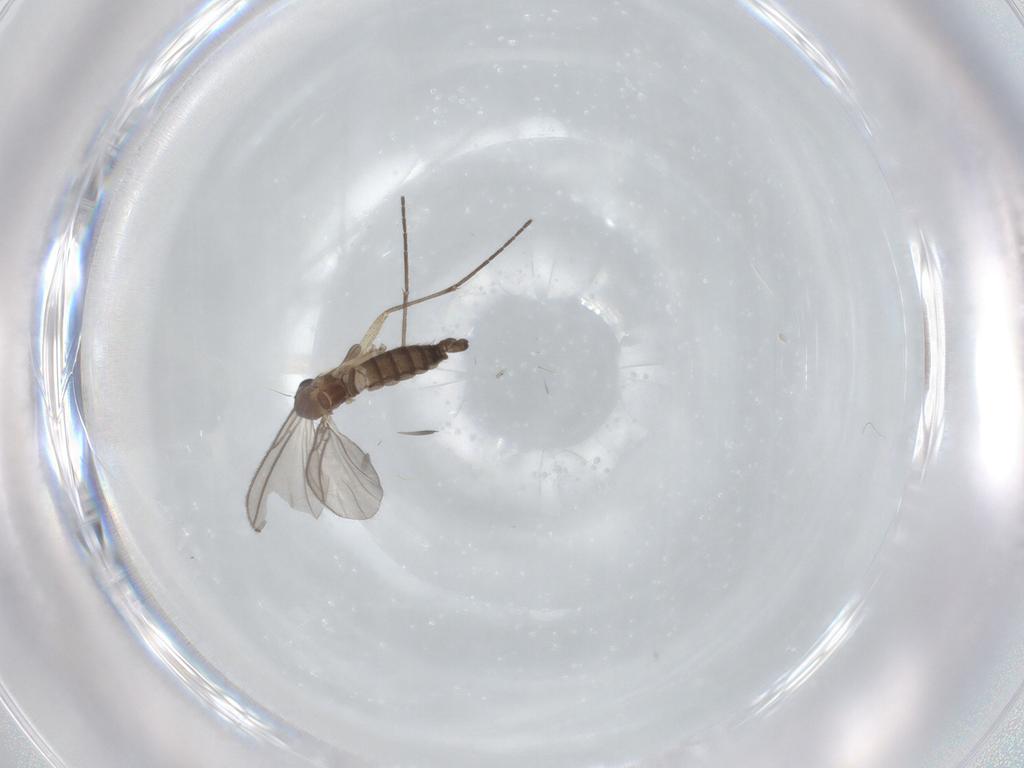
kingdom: Animalia
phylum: Arthropoda
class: Insecta
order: Diptera
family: Sciaridae
